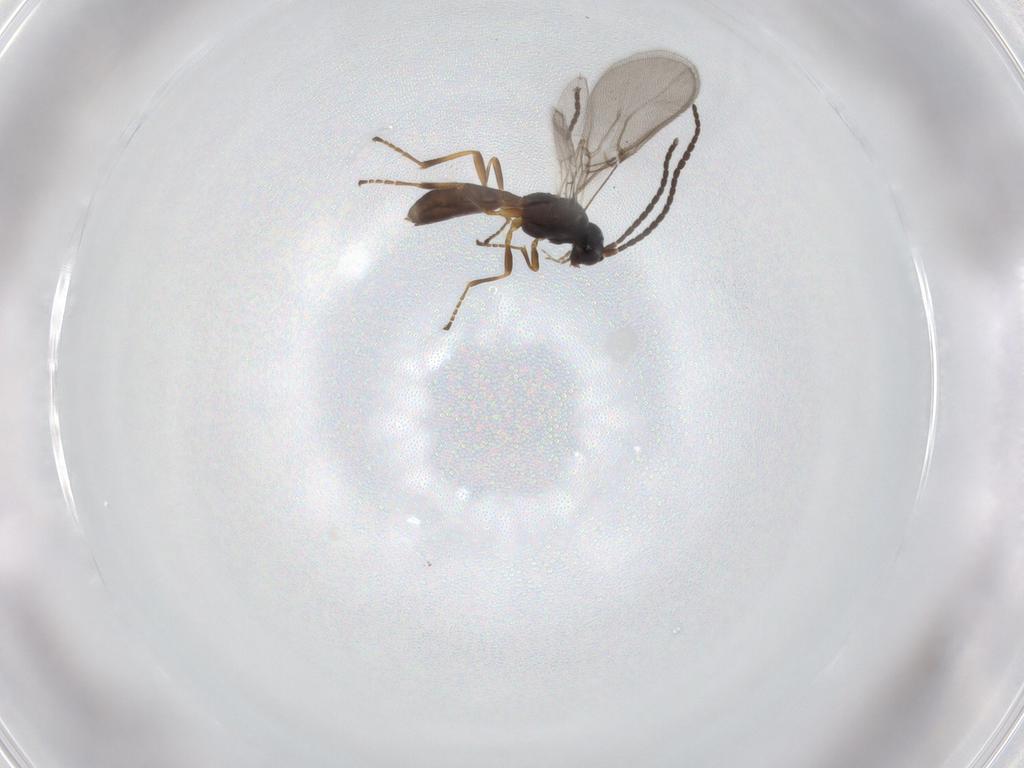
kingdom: Animalia
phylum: Arthropoda
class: Insecta
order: Hymenoptera
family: Braconidae
